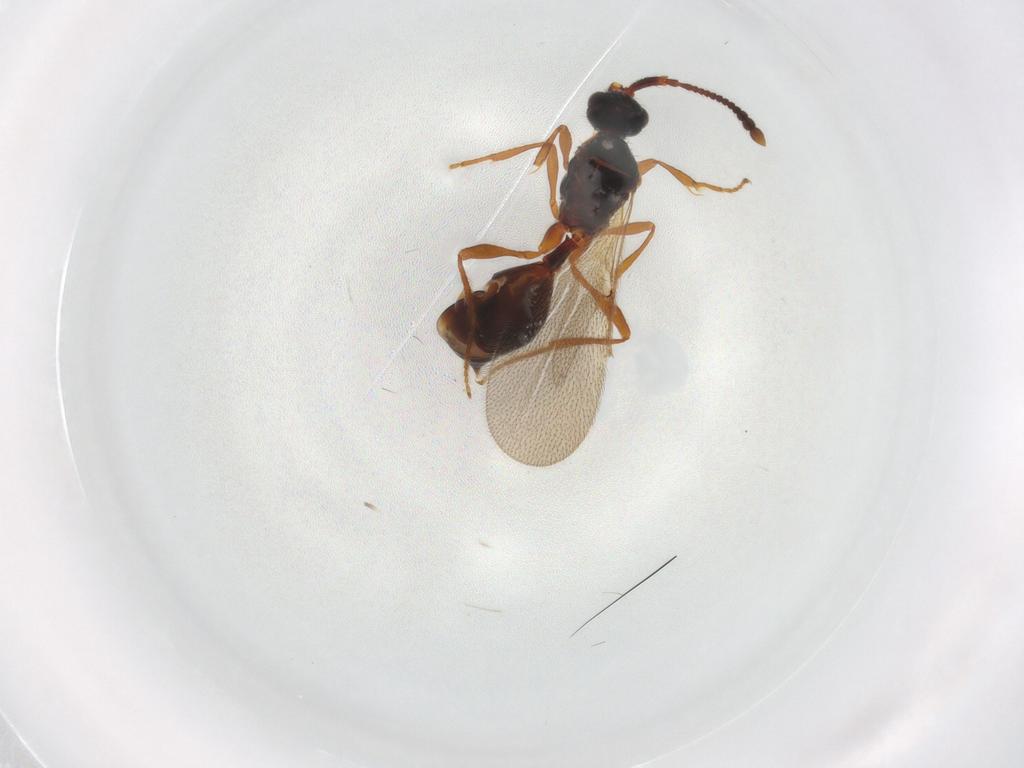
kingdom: Animalia
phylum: Arthropoda
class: Insecta
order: Hymenoptera
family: Diapriidae
